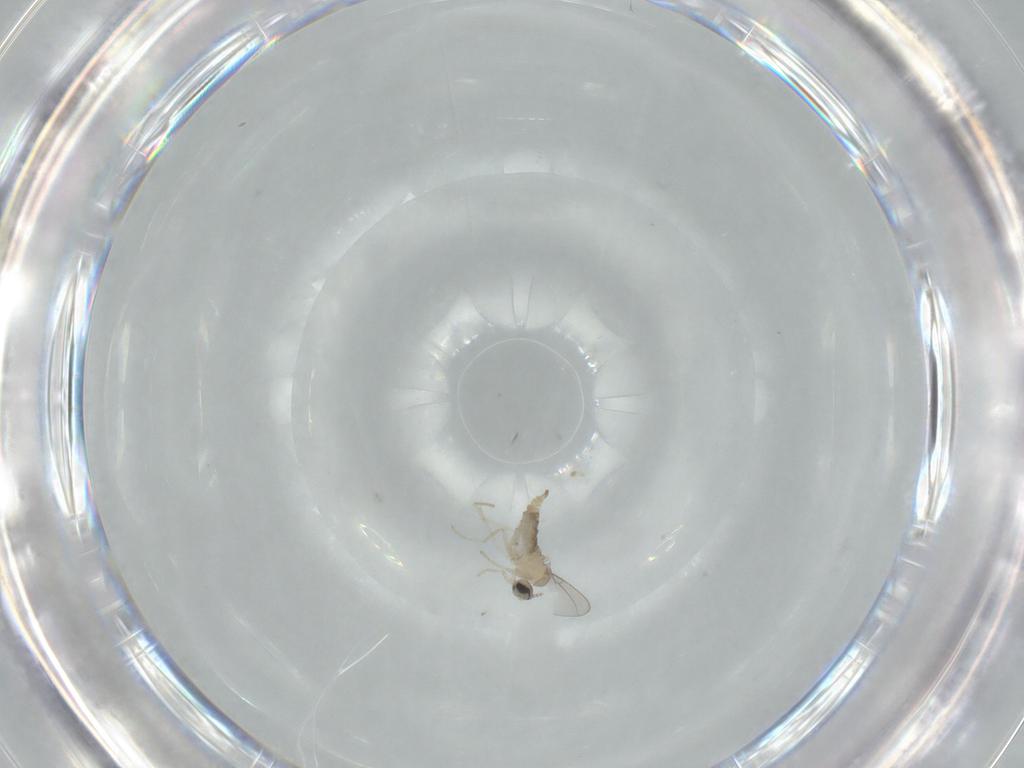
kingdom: Animalia
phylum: Arthropoda
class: Insecta
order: Diptera
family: Cecidomyiidae
